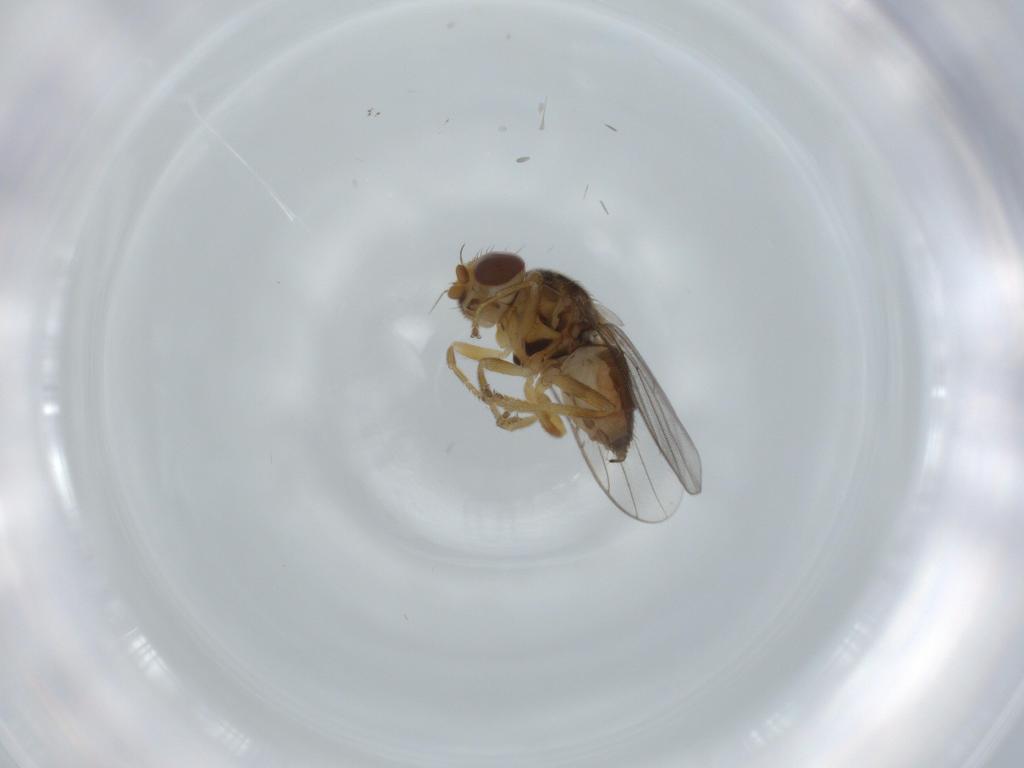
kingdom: Animalia
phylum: Arthropoda
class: Insecta
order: Diptera
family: Chloropidae
